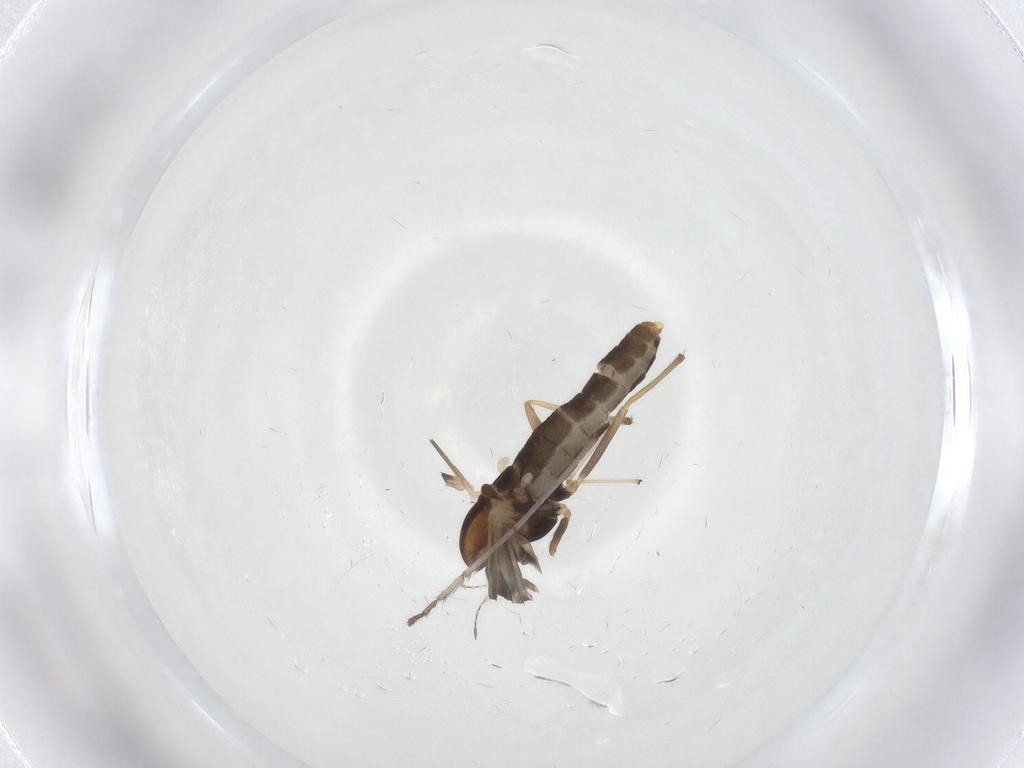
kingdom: Animalia
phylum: Arthropoda
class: Insecta
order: Diptera
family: Chironomidae
